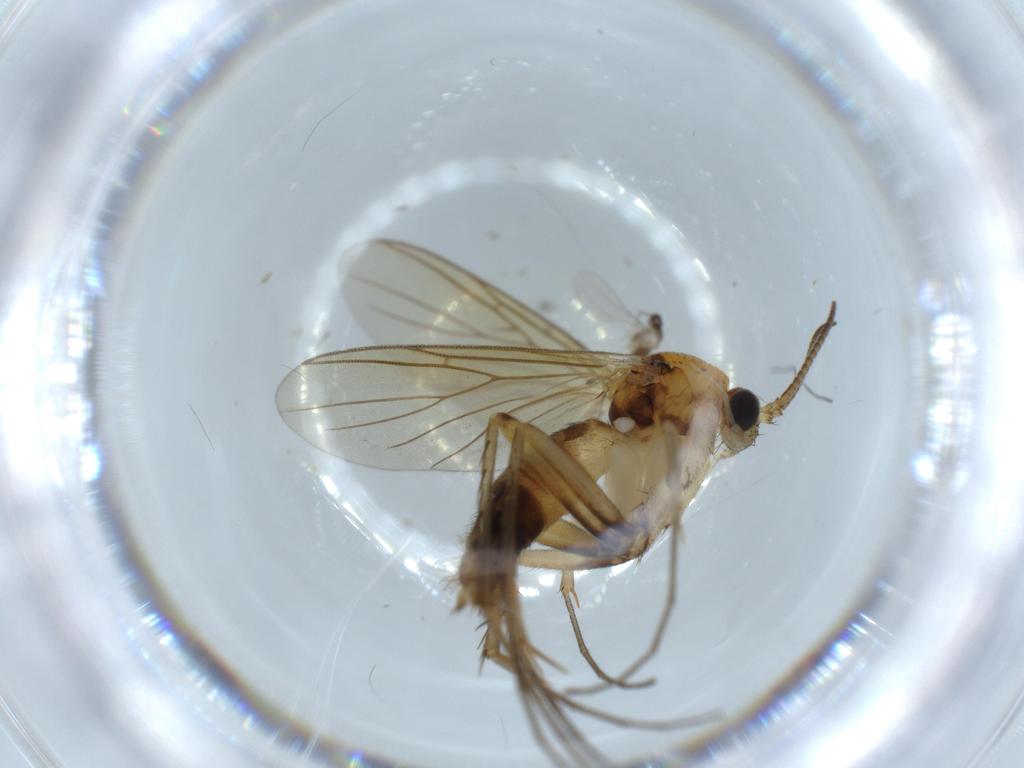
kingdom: Animalia
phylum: Arthropoda
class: Insecta
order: Diptera
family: Mycetophilidae
